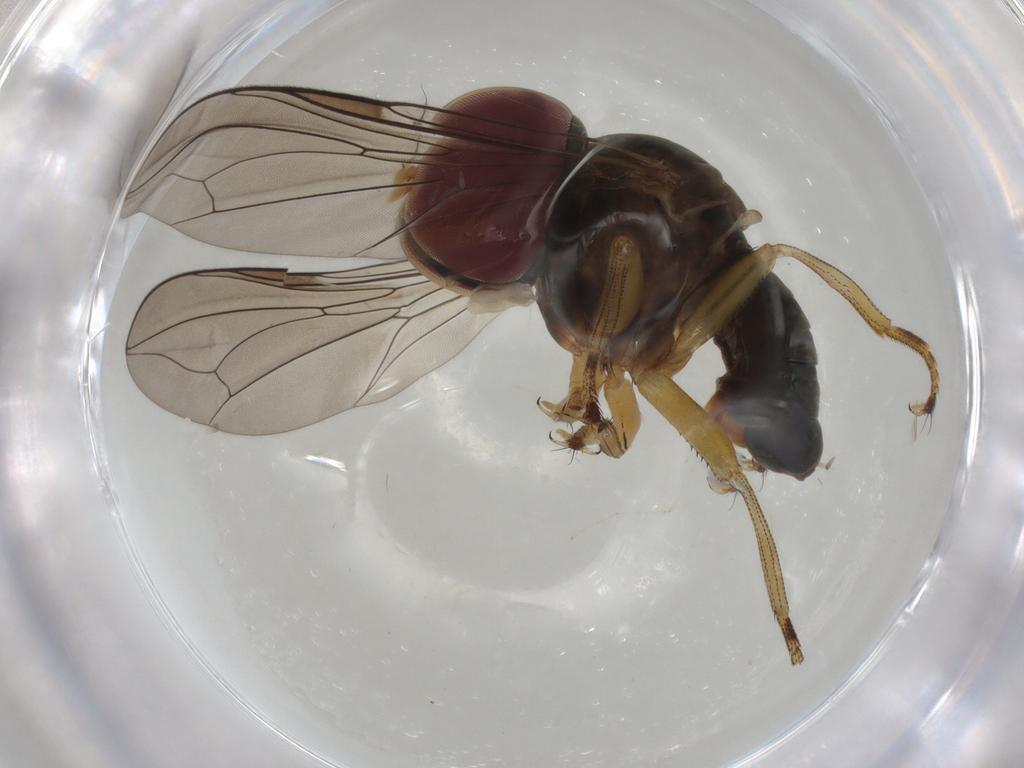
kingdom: Animalia
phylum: Arthropoda
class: Insecta
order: Diptera
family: Pipunculidae
